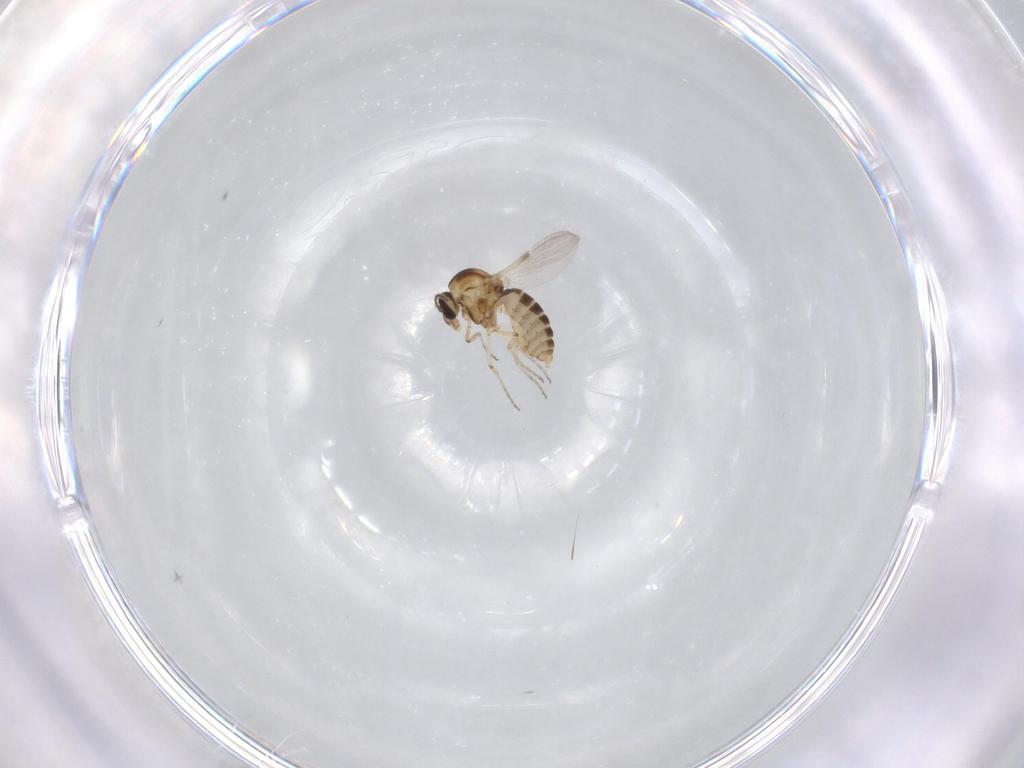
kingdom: Animalia
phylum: Arthropoda
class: Insecta
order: Diptera
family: Ceratopogonidae
